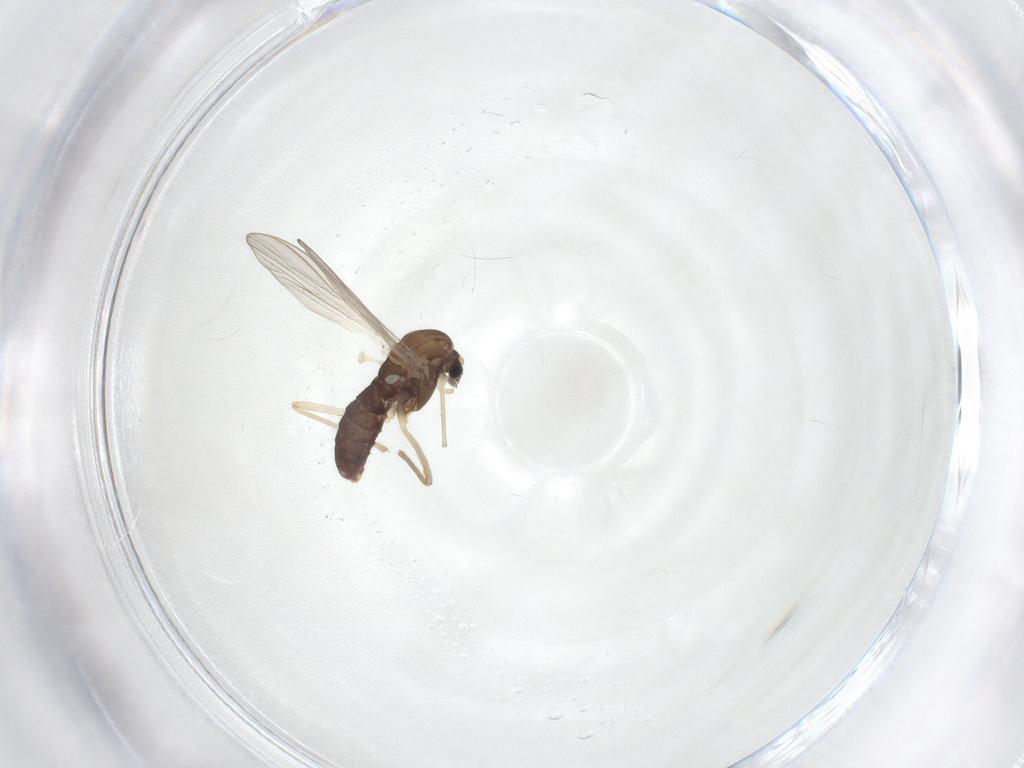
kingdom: Animalia
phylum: Arthropoda
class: Insecta
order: Diptera
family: Chironomidae
